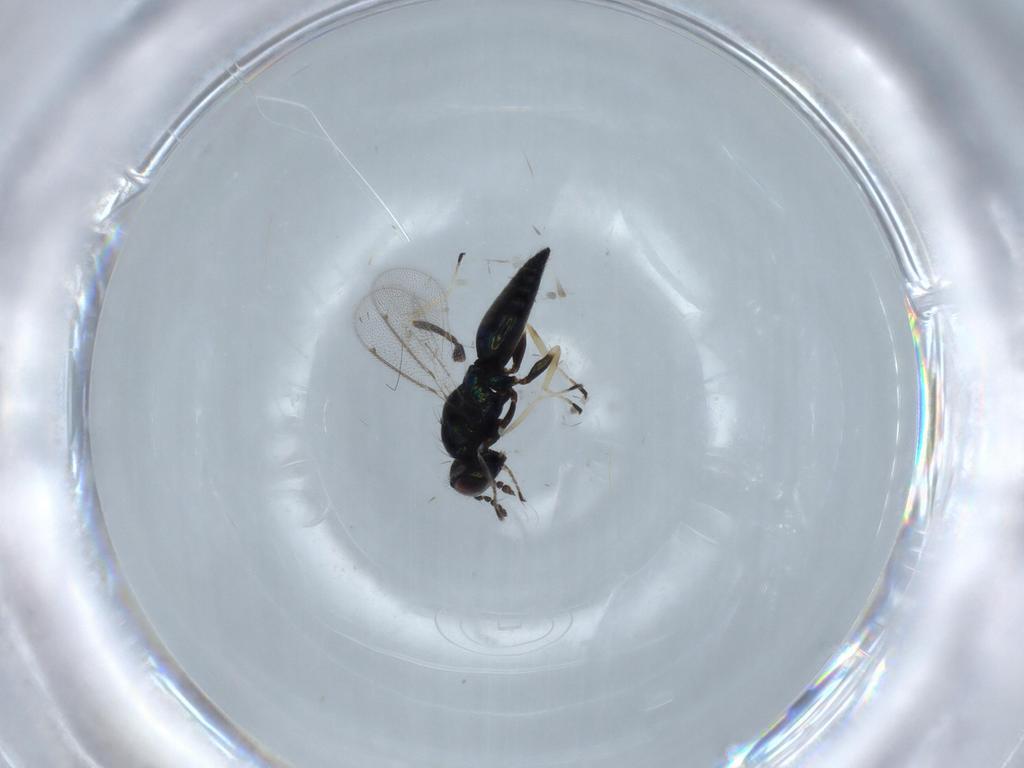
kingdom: Animalia
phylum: Arthropoda
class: Insecta
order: Hymenoptera
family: Eulophidae
